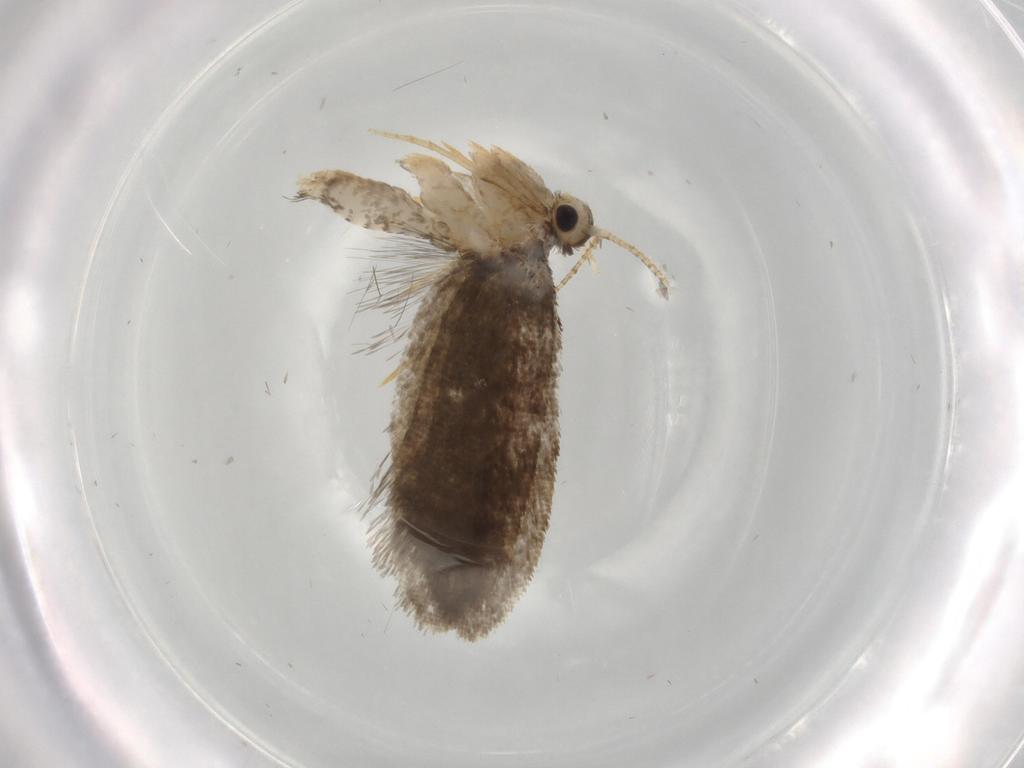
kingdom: Animalia
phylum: Arthropoda
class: Insecta
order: Lepidoptera
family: Psychidae
